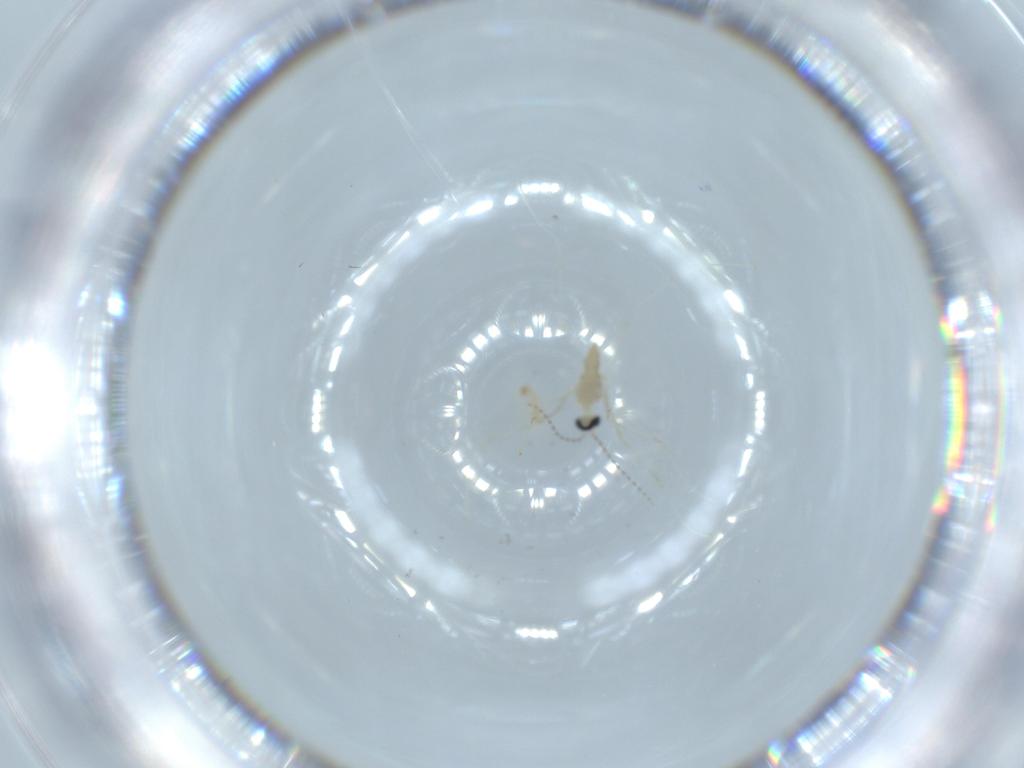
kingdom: Animalia
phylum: Arthropoda
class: Insecta
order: Diptera
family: Cecidomyiidae
